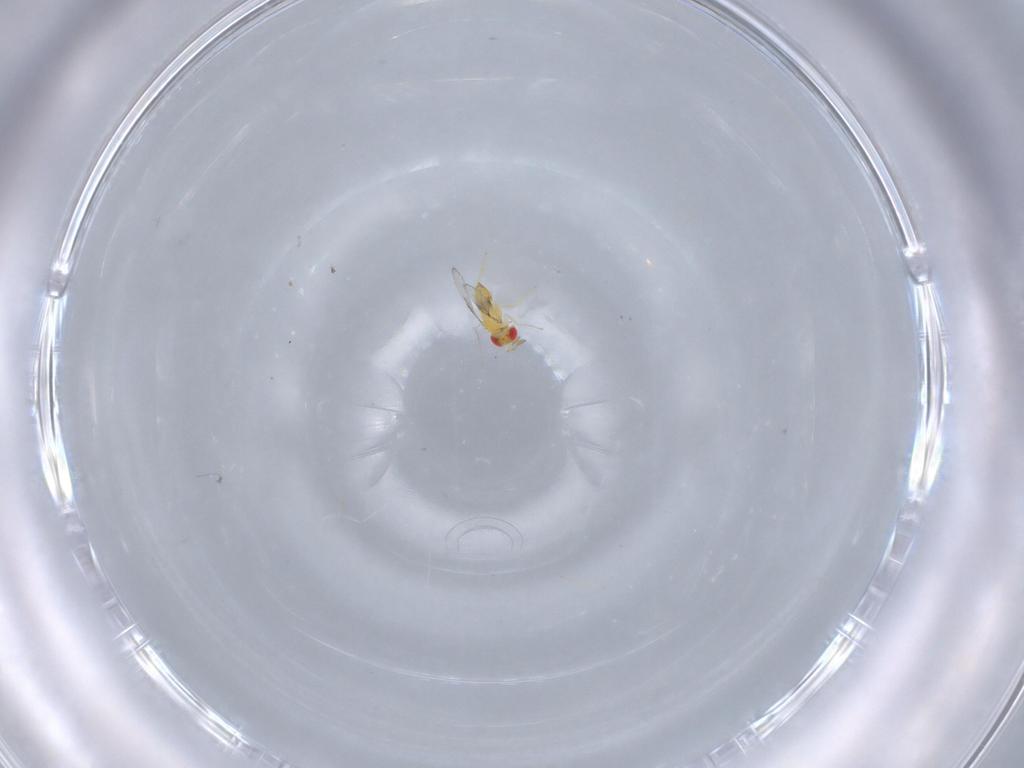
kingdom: Animalia
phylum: Arthropoda
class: Insecta
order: Hymenoptera
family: Trichogrammatidae
